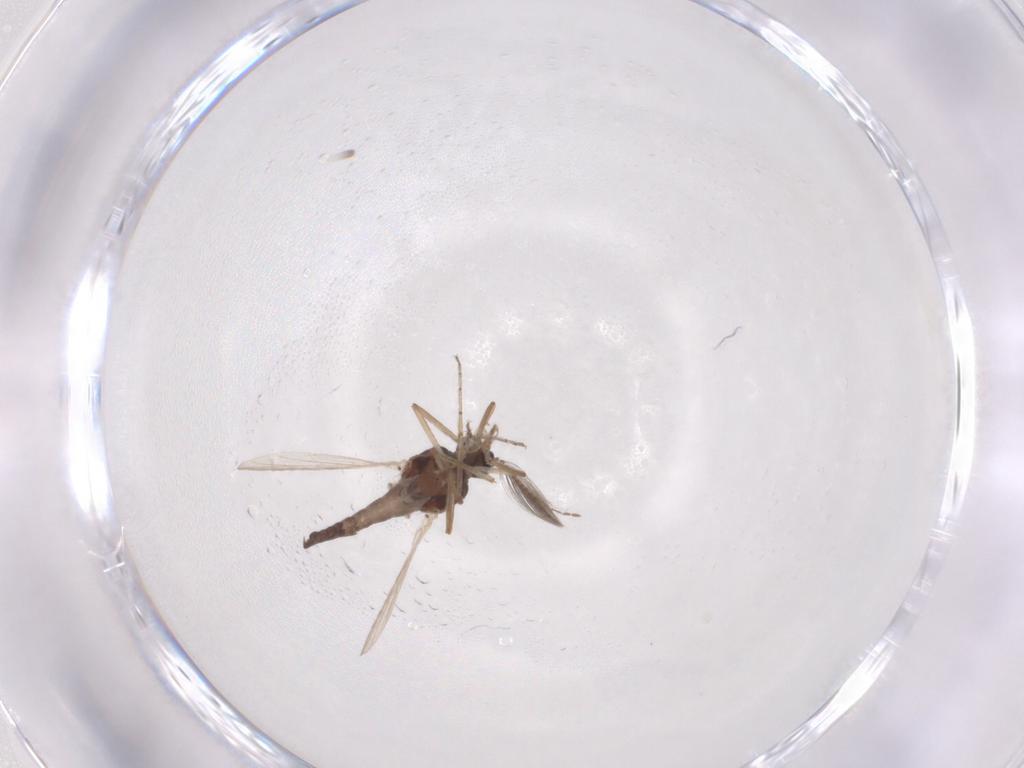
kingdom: Animalia
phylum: Arthropoda
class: Insecta
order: Diptera
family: Ceratopogonidae
